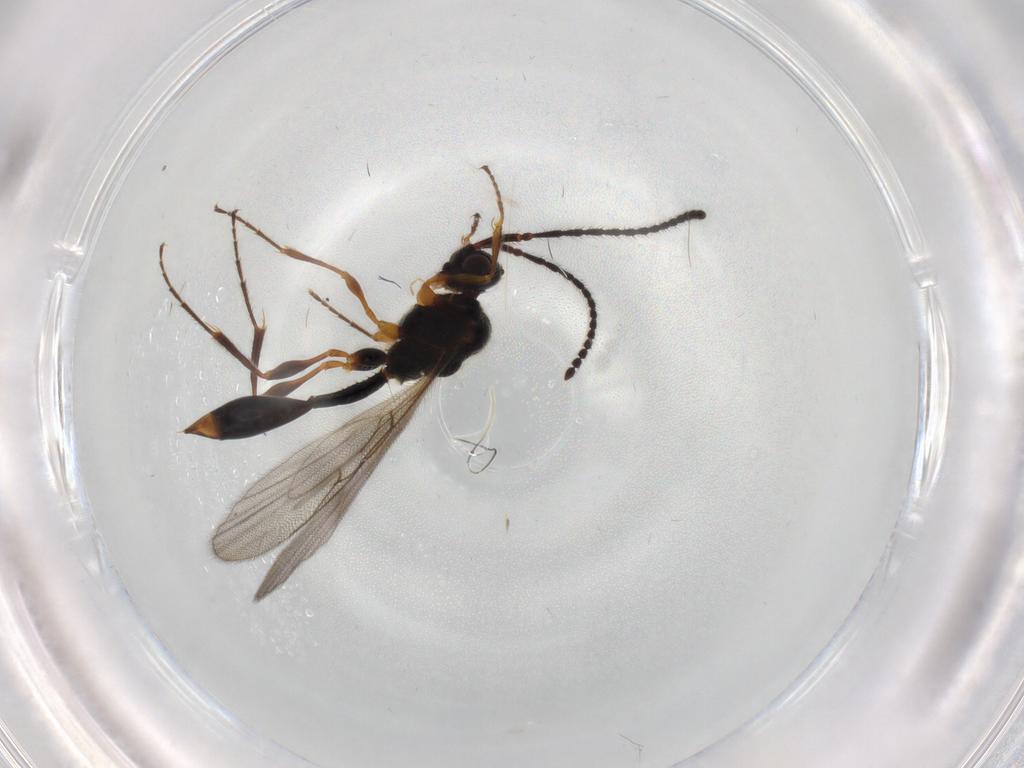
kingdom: Animalia
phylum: Arthropoda
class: Insecta
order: Hymenoptera
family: Diapriidae
